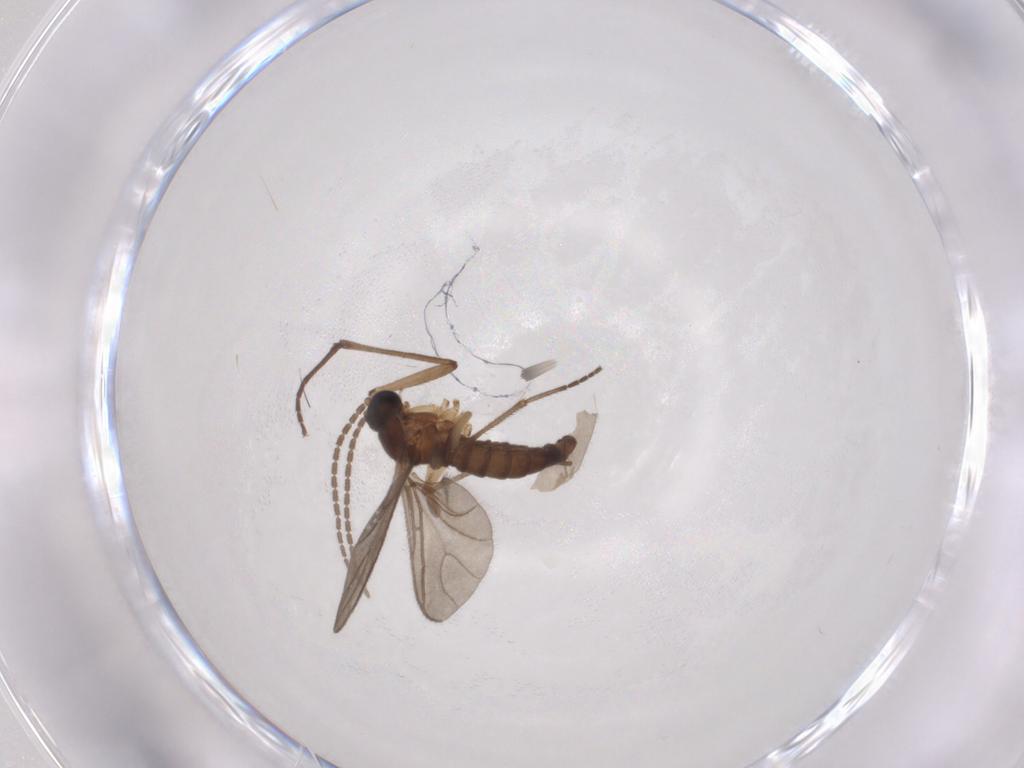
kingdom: Animalia
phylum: Arthropoda
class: Insecta
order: Diptera
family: Sciaridae
